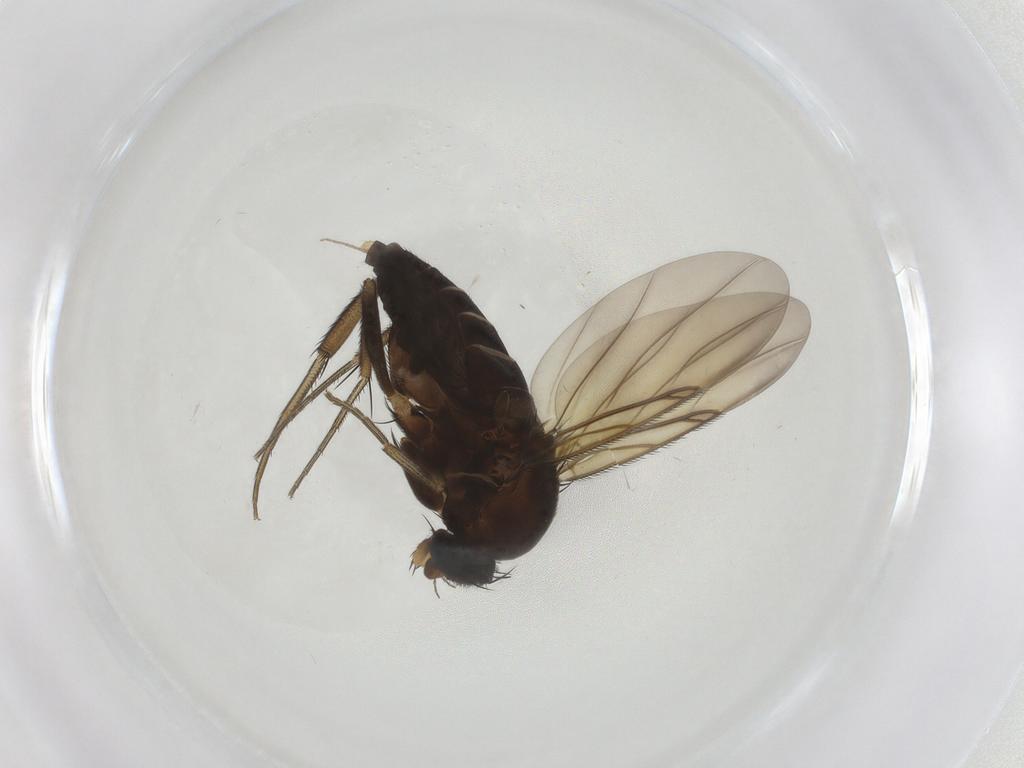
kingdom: Animalia
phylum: Arthropoda
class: Insecta
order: Diptera
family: Phoridae
